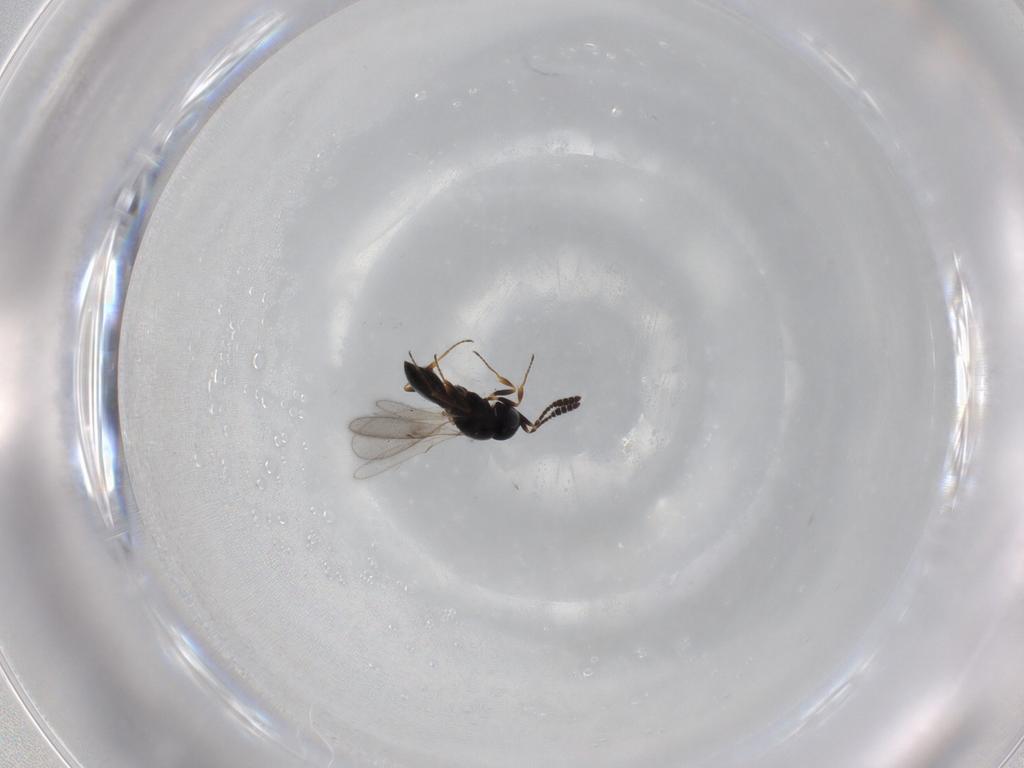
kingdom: Animalia
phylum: Arthropoda
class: Insecta
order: Hymenoptera
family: Scelionidae
